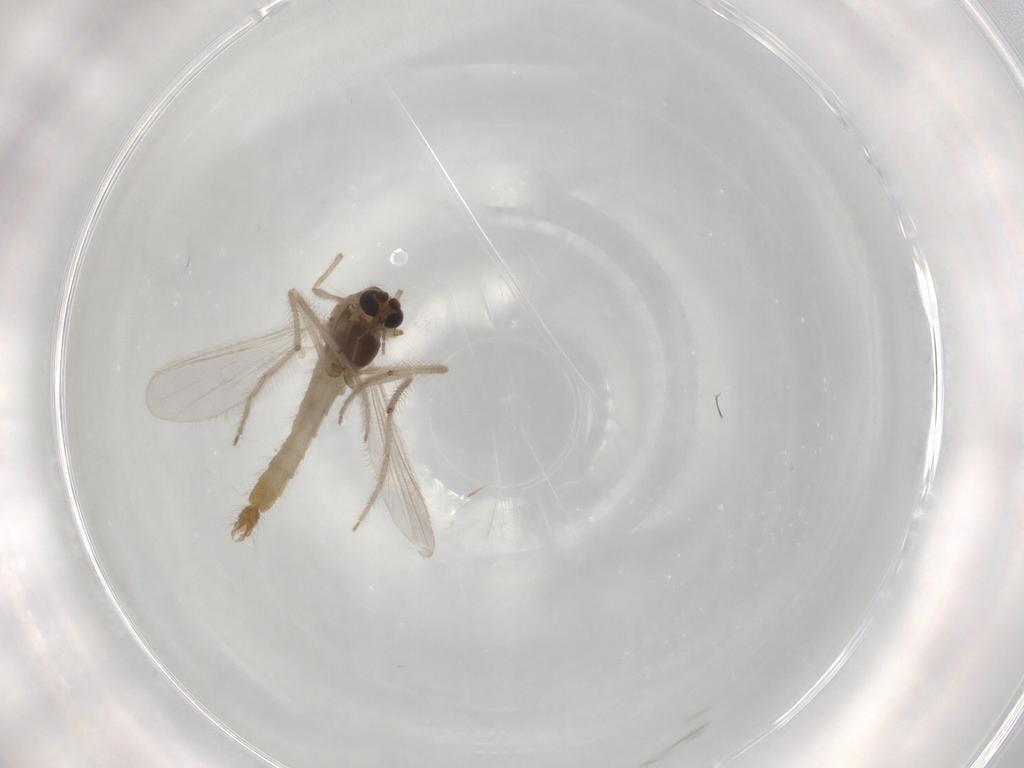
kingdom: Animalia
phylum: Arthropoda
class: Insecta
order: Diptera
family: Chironomidae
